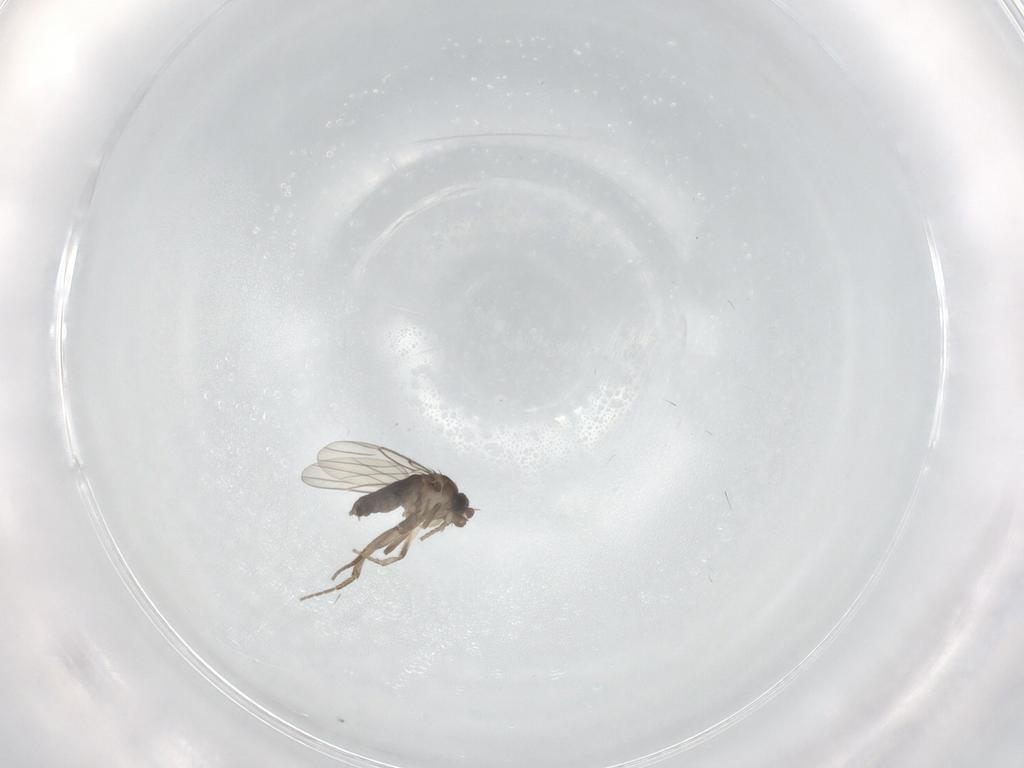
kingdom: Animalia
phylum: Arthropoda
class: Insecta
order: Diptera
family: Phoridae
